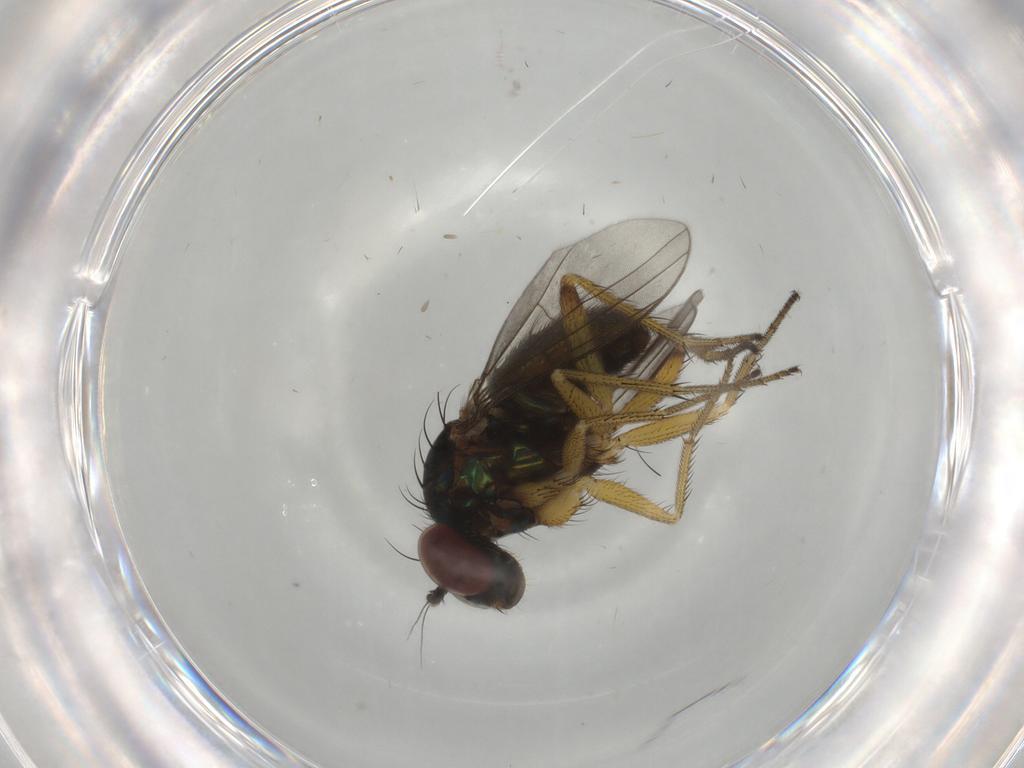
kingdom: Animalia
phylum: Arthropoda
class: Insecta
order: Diptera
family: Dolichopodidae
